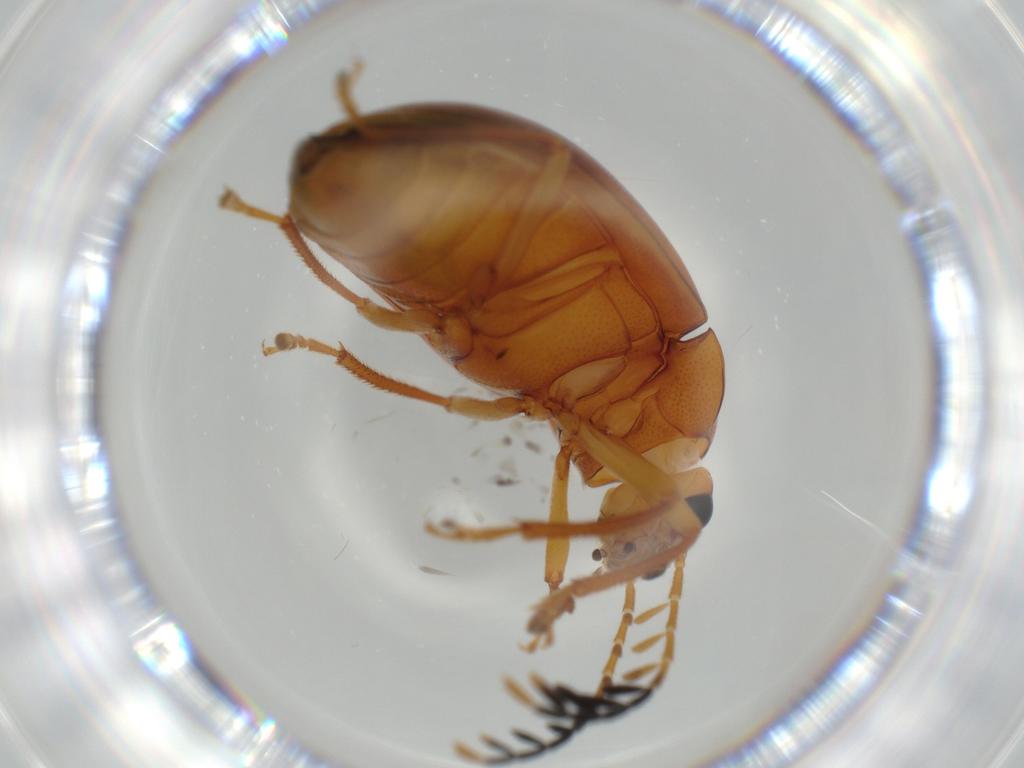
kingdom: Animalia
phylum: Arthropoda
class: Insecta
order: Coleoptera
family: Ptilodactylidae
